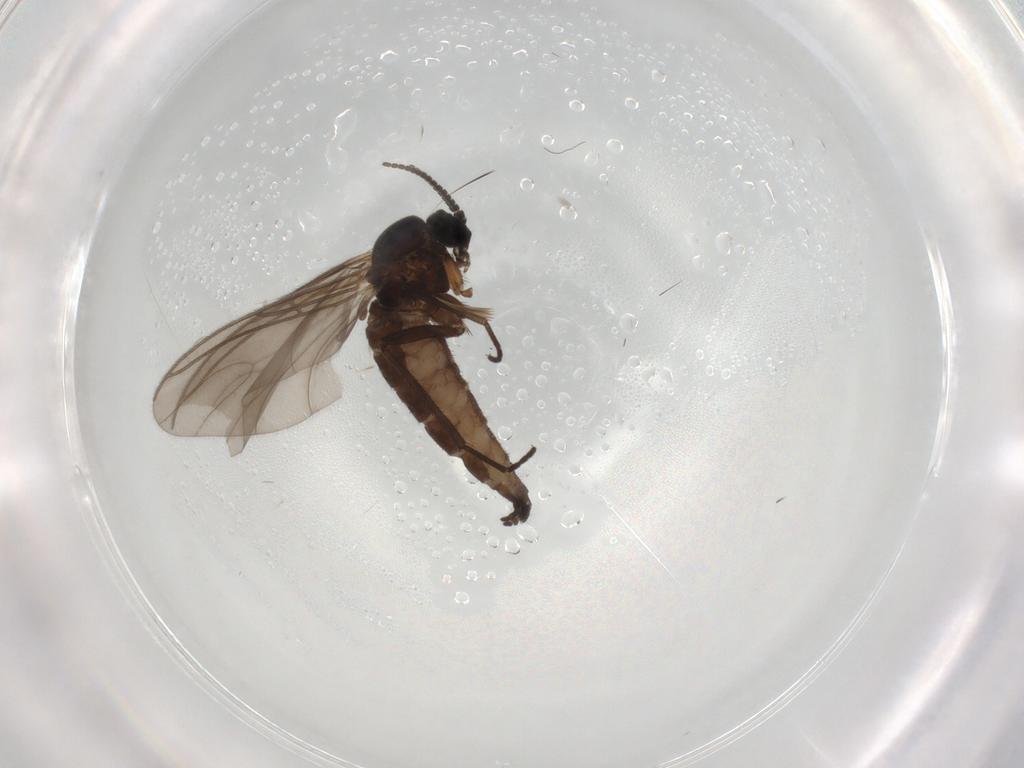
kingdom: Animalia
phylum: Arthropoda
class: Insecta
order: Diptera
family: Sciaridae
